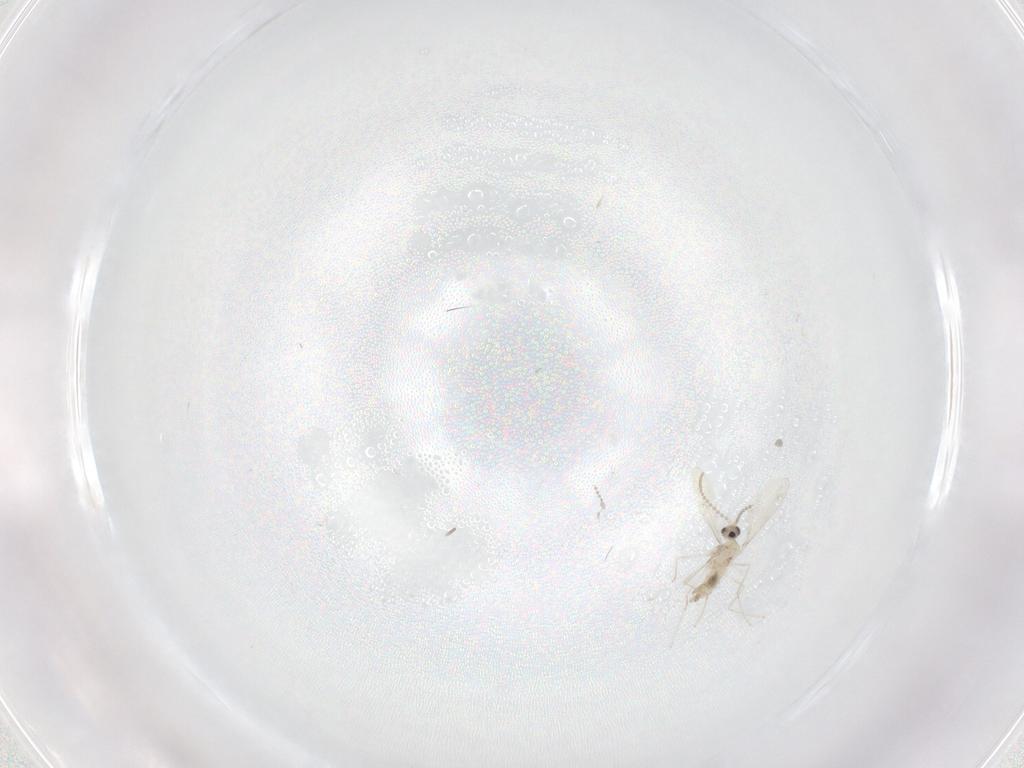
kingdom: Animalia
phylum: Arthropoda
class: Insecta
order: Diptera
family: Cecidomyiidae
